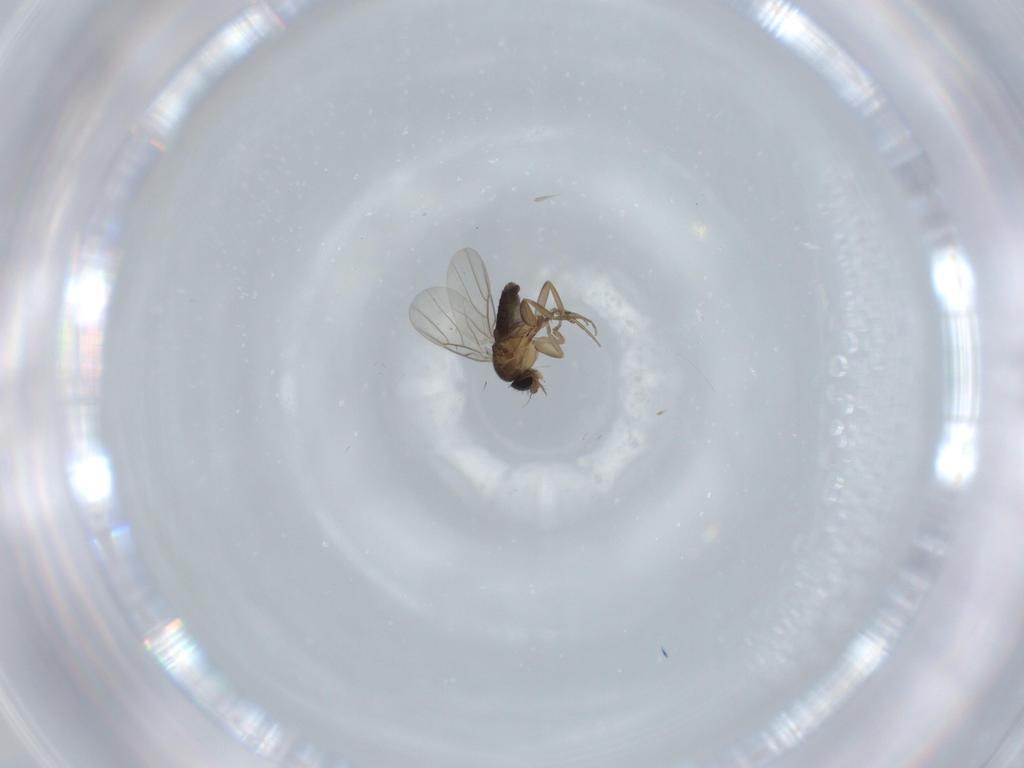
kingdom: Animalia
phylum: Arthropoda
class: Insecta
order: Diptera
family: Phoridae
